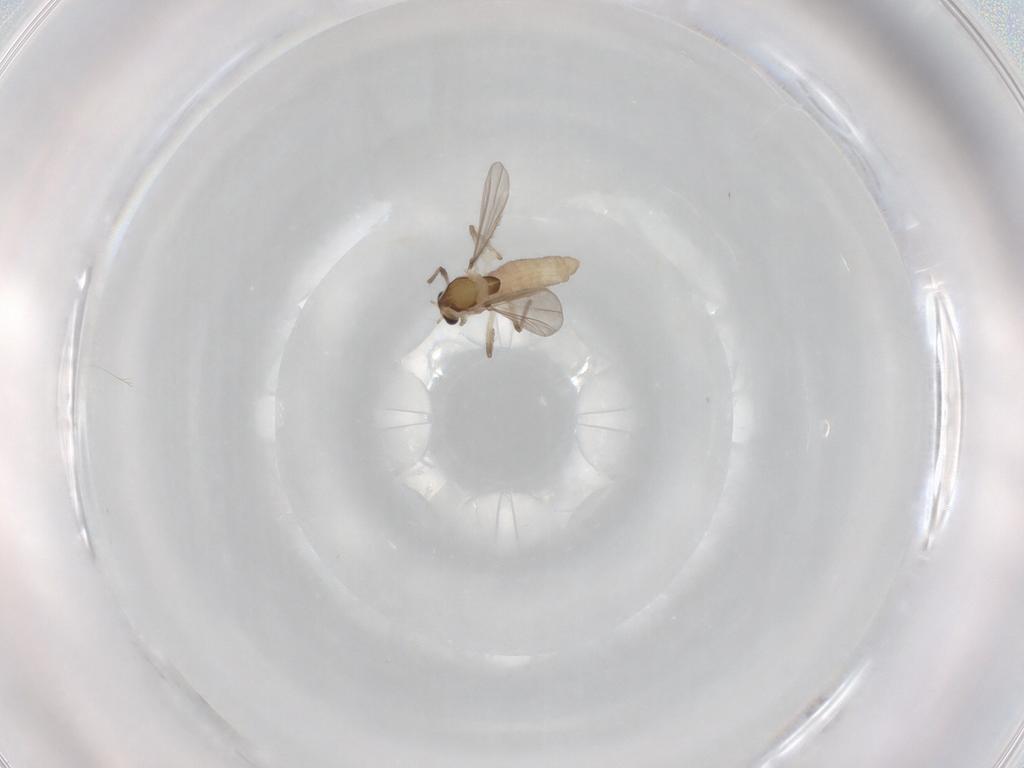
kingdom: Animalia
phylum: Arthropoda
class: Insecta
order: Diptera
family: Chironomidae
